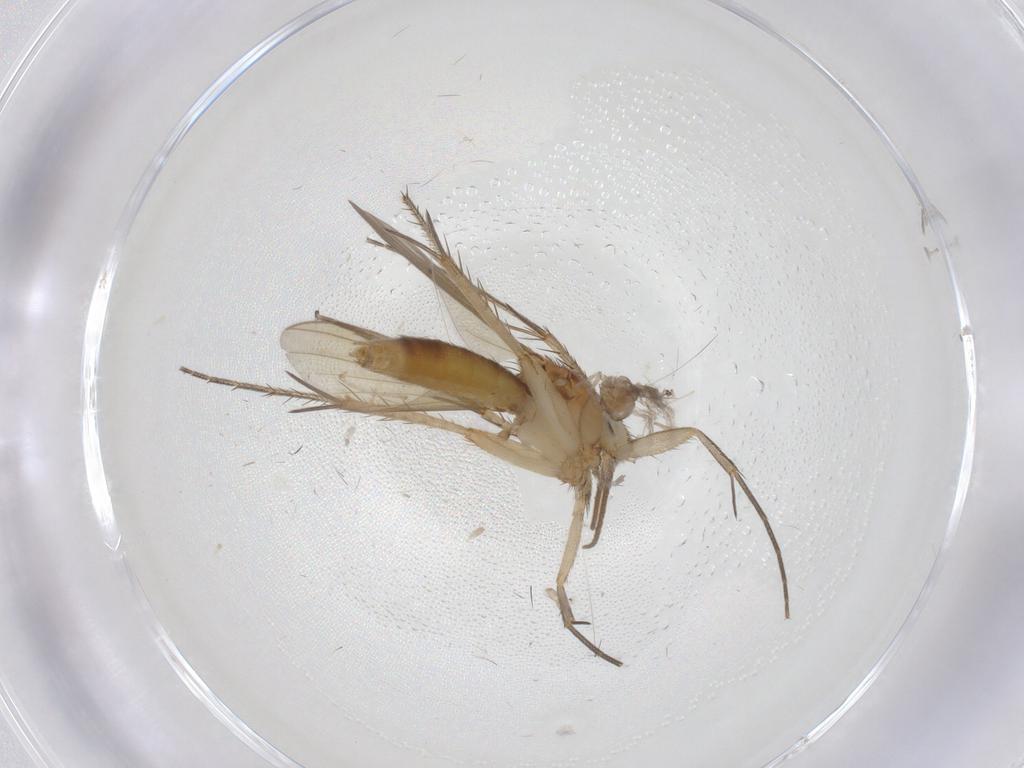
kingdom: Animalia
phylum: Arthropoda
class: Insecta
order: Diptera
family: Mycetophilidae
